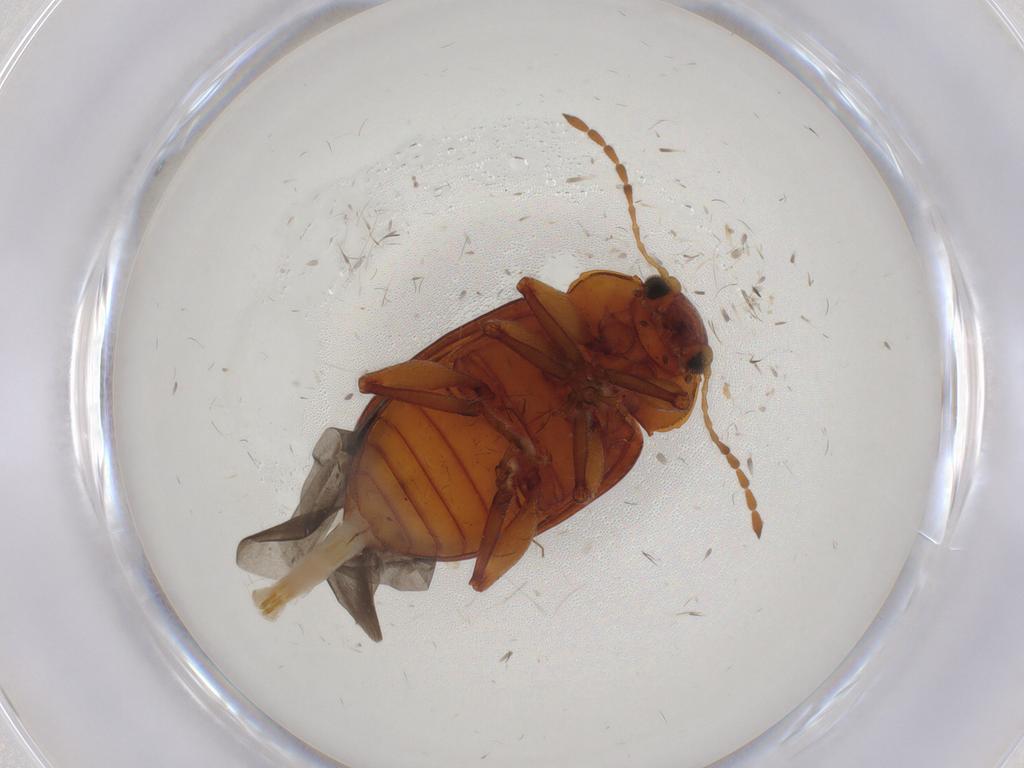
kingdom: Animalia
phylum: Arthropoda
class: Insecta
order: Coleoptera
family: Chrysomelidae
